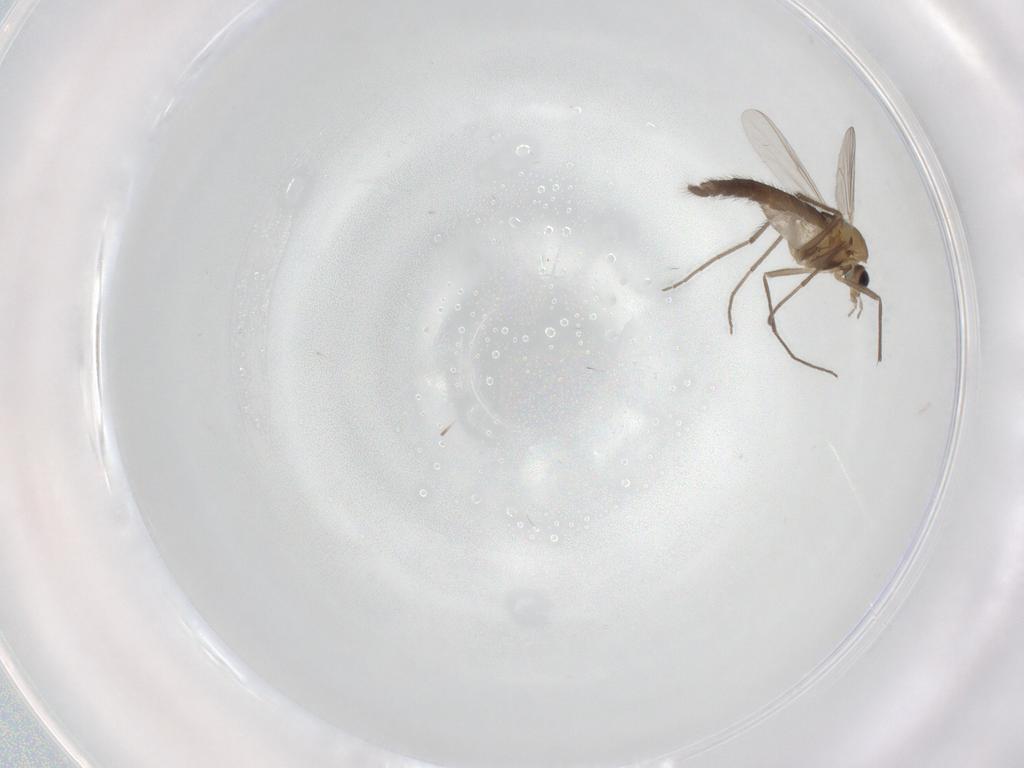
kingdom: Animalia
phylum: Arthropoda
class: Insecta
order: Diptera
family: Chironomidae
